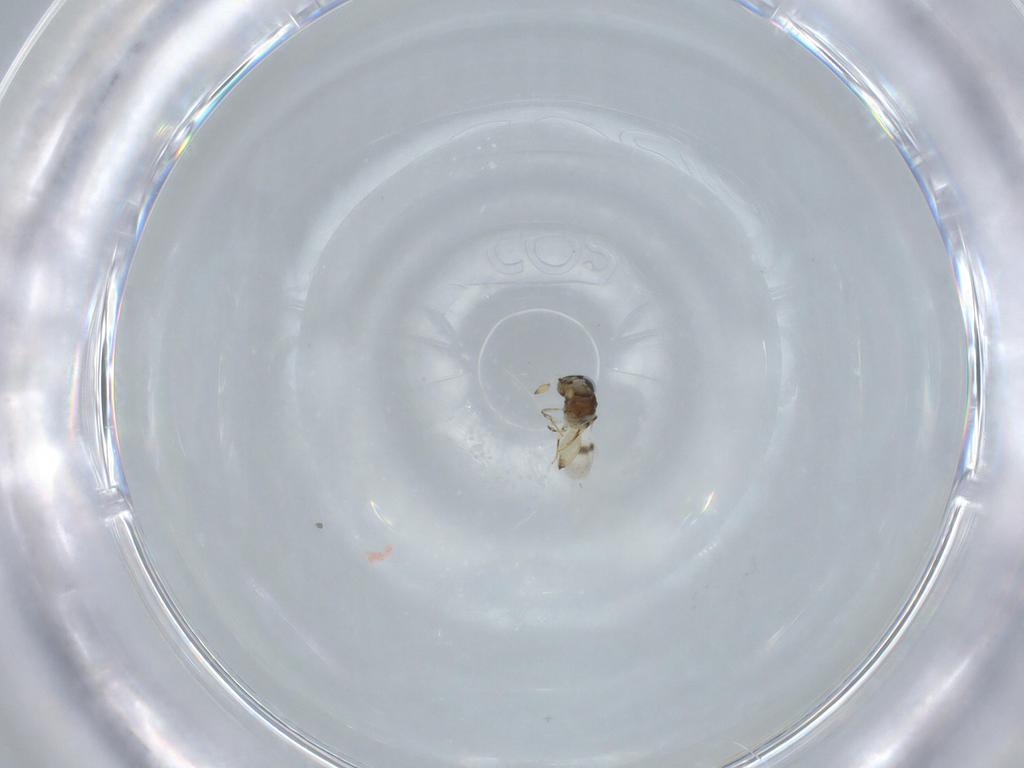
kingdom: Animalia
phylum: Arthropoda
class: Insecta
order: Hymenoptera
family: Scelionidae
